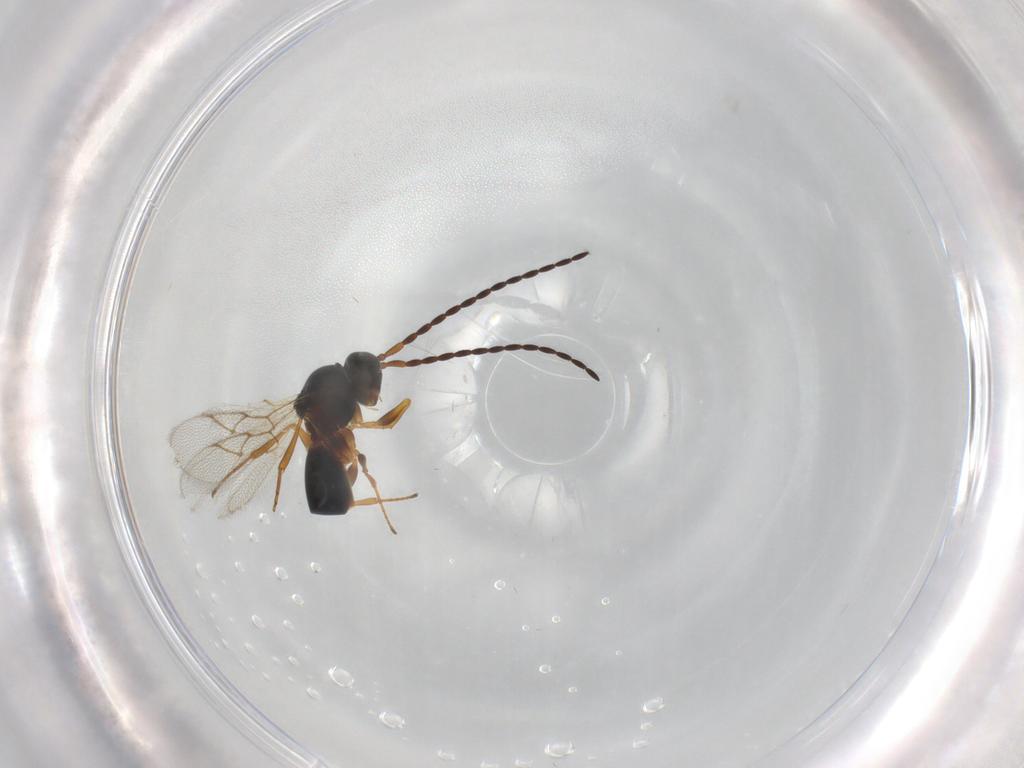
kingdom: Animalia
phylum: Arthropoda
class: Insecta
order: Hymenoptera
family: Figitidae
